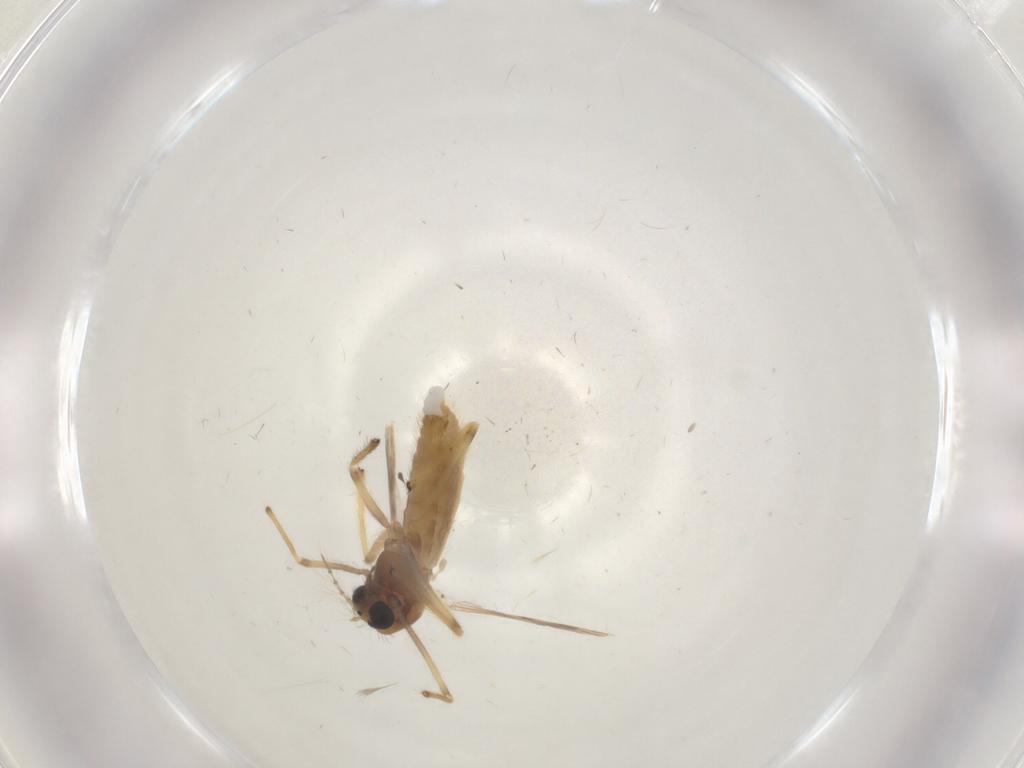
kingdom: Animalia
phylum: Arthropoda
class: Insecta
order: Diptera
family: Chironomidae
